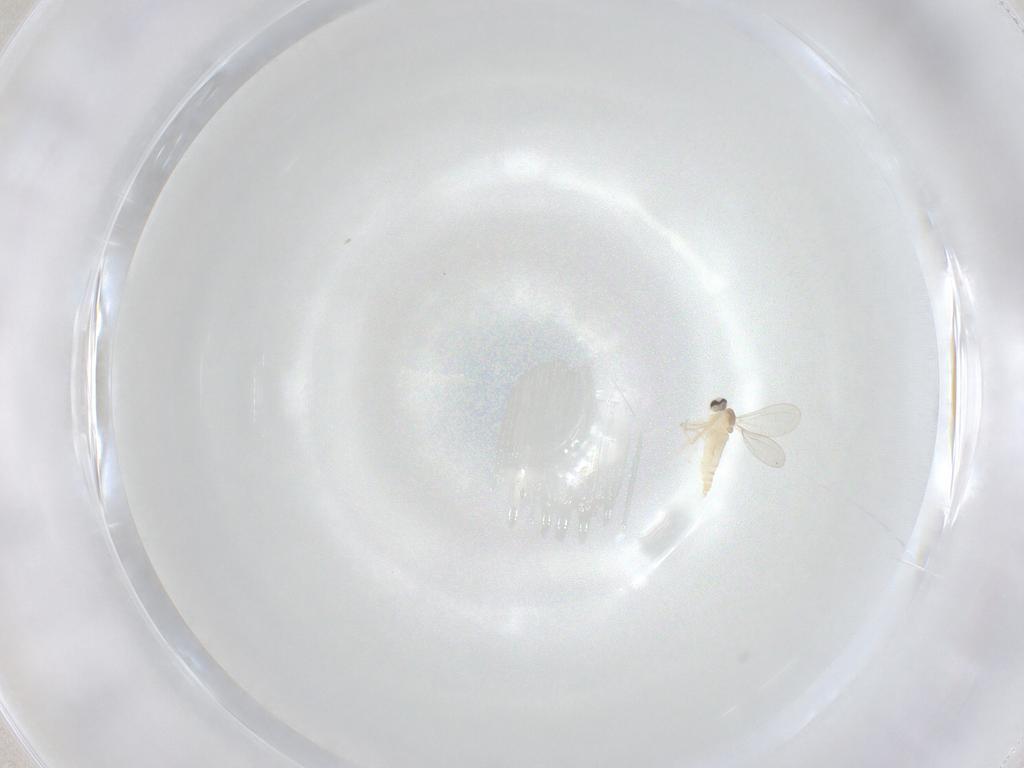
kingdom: Animalia
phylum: Arthropoda
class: Insecta
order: Diptera
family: Cecidomyiidae
